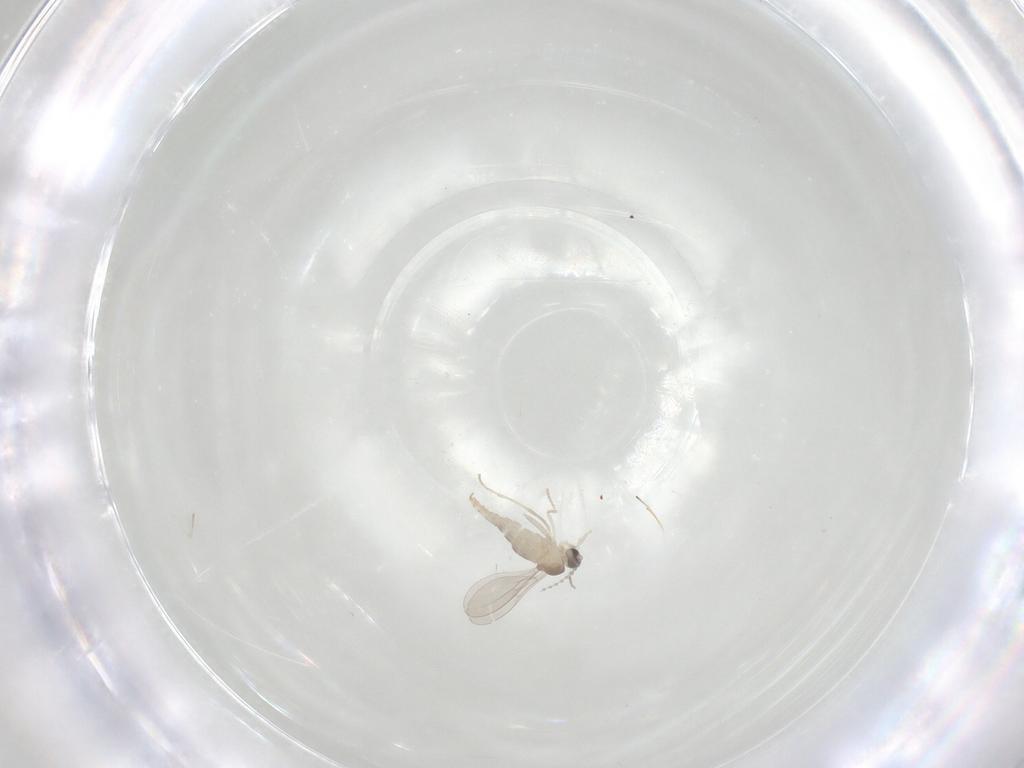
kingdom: Animalia
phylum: Arthropoda
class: Insecta
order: Diptera
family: Cecidomyiidae
